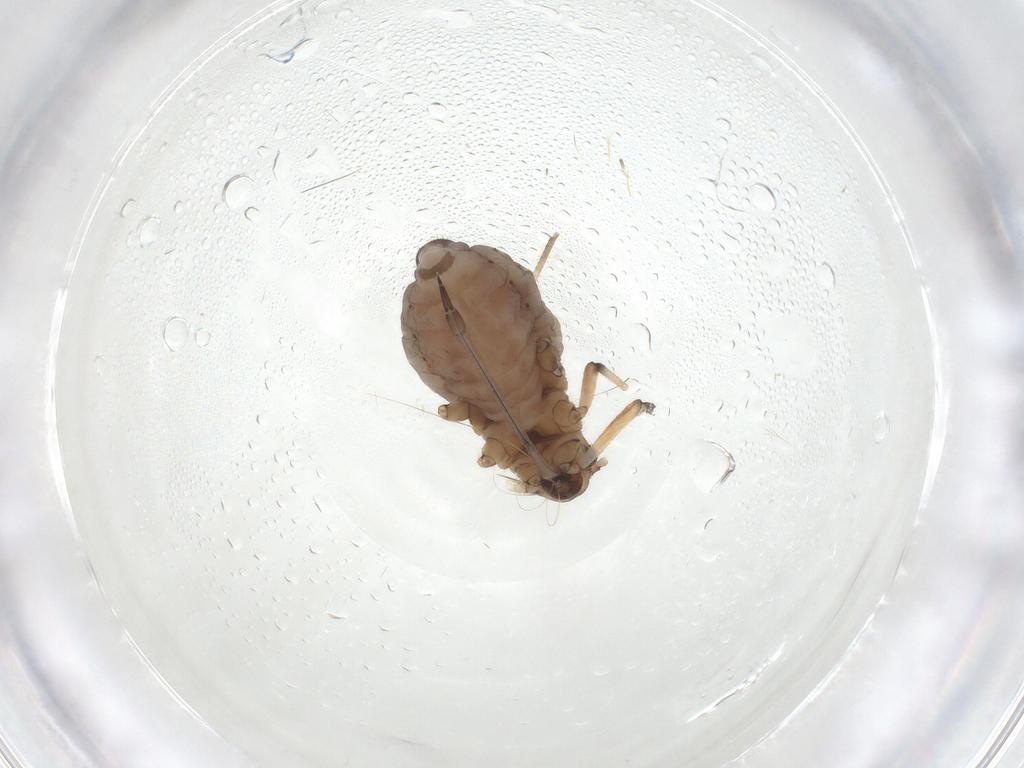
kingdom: Animalia
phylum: Arthropoda
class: Insecta
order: Hemiptera
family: Aphididae
